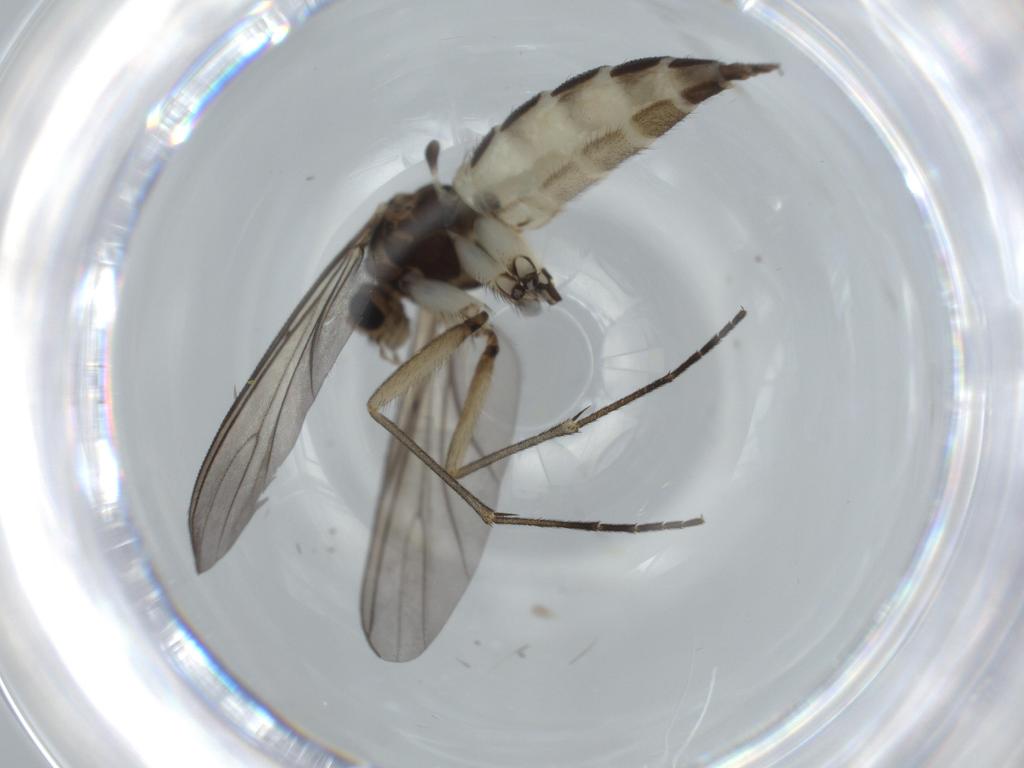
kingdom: Animalia
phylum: Arthropoda
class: Insecta
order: Diptera
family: Sciaridae
